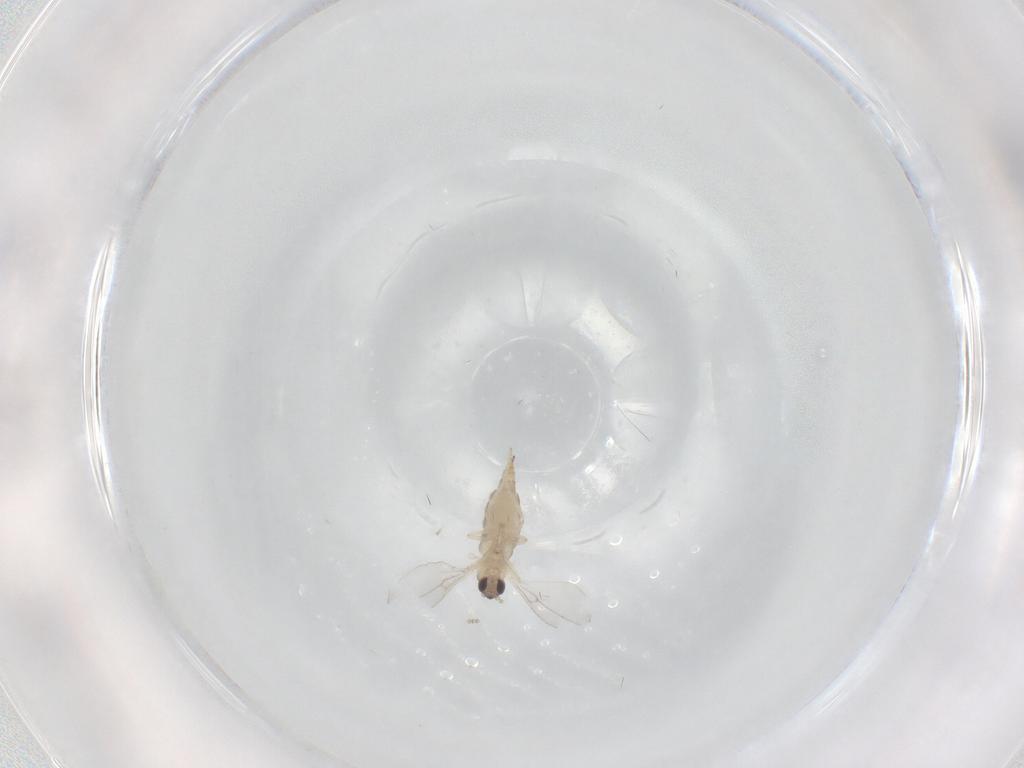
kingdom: Animalia
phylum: Arthropoda
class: Insecta
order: Diptera
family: Cecidomyiidae
